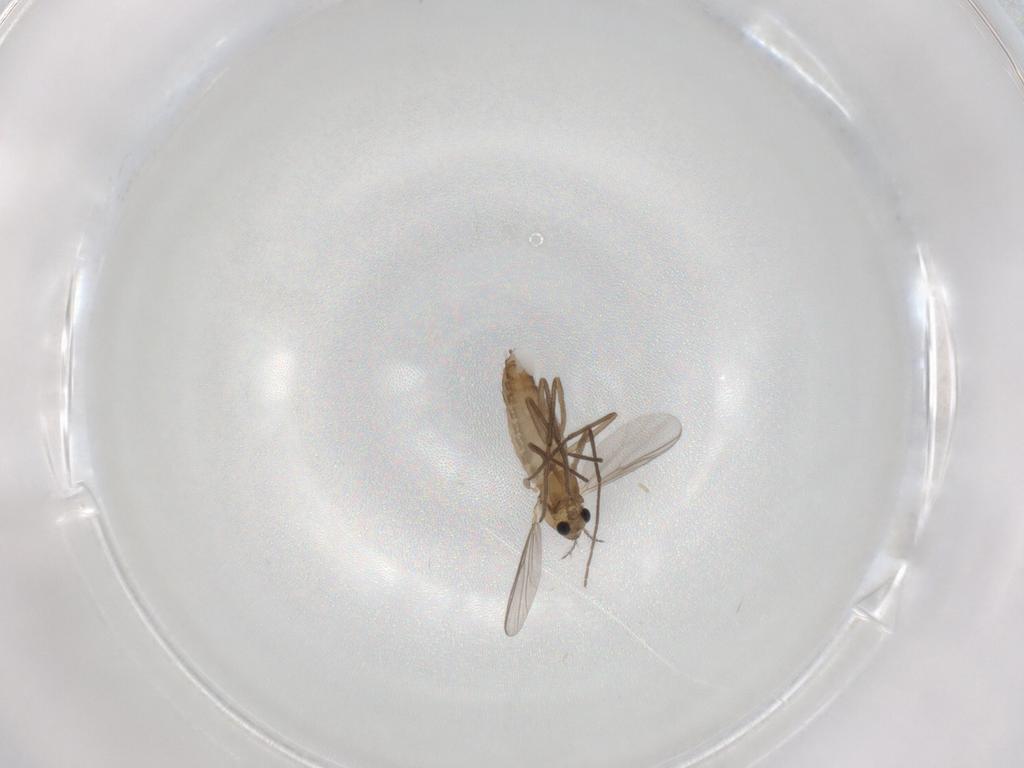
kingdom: Animalia
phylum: Arthropoda
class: Insecta
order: Diptera
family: Chironomidae
